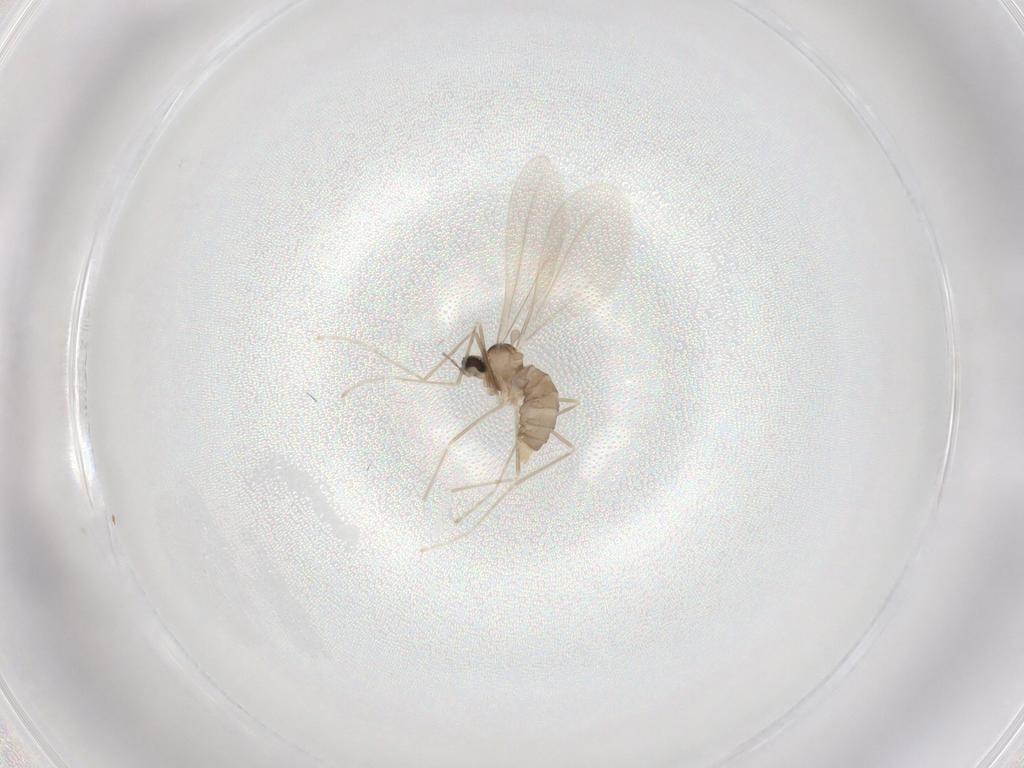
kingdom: Animalia
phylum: Arthropoda
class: Insecta
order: Diptera
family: Cecidomyiidae
